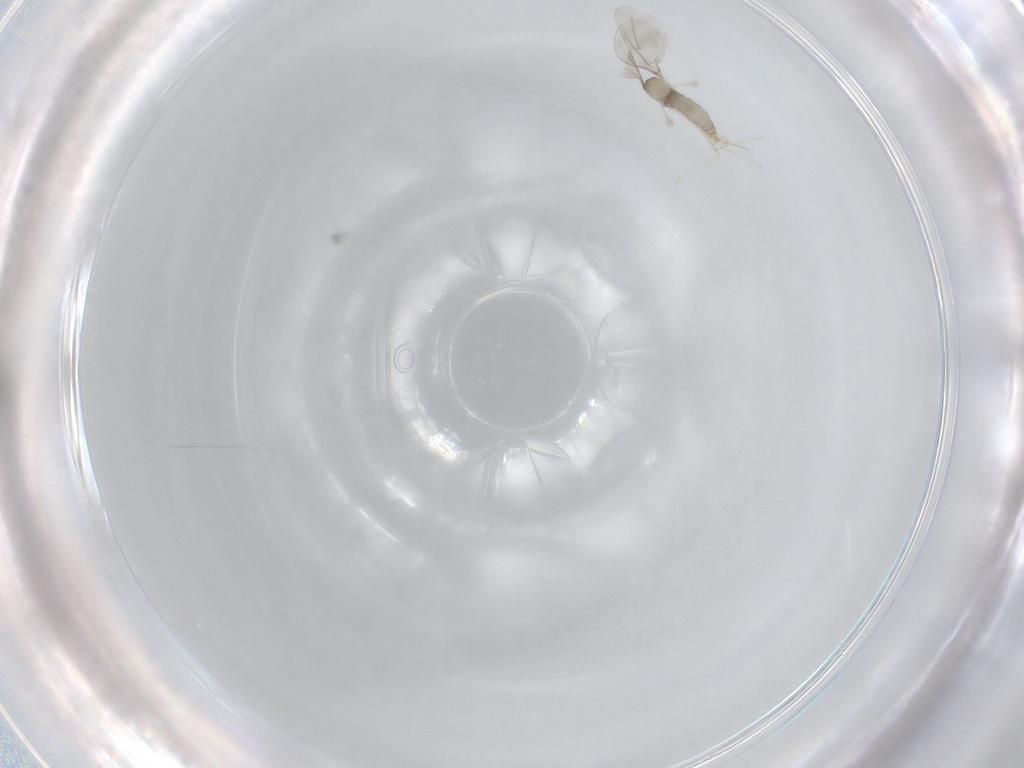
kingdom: Animalia
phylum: Arthropoda
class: Insecta
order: Diptera
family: Cecidomyiidae
